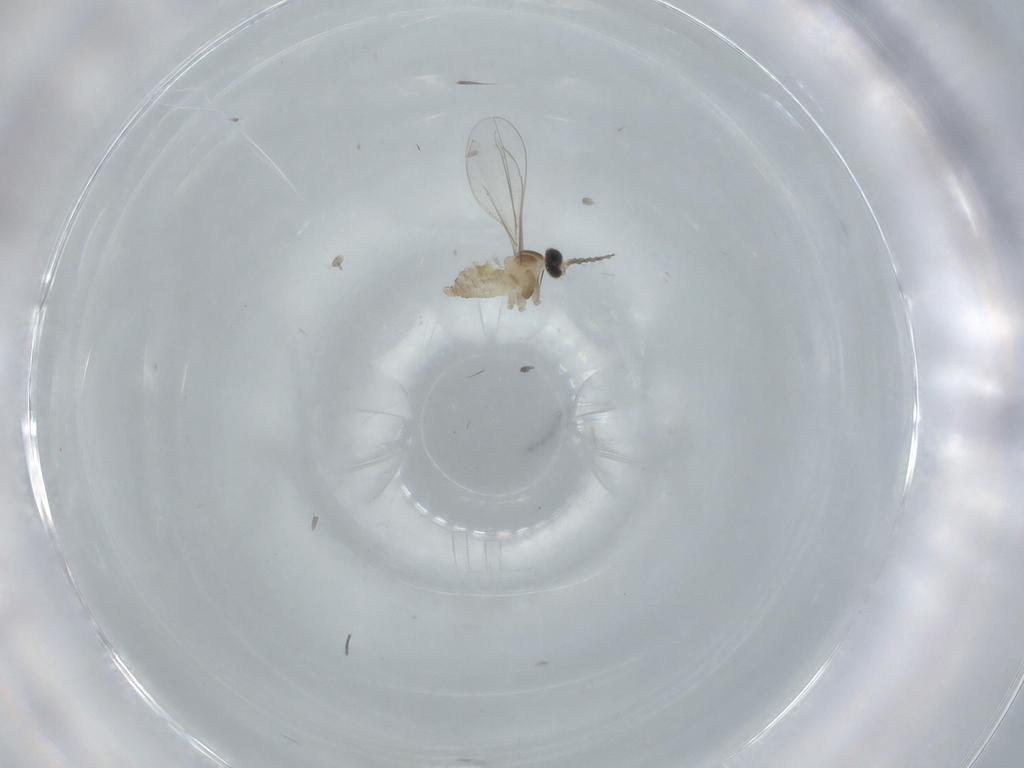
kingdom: Animalia
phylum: Arthropoda
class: Insecta
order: Diptera
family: Cecidomyiidae
